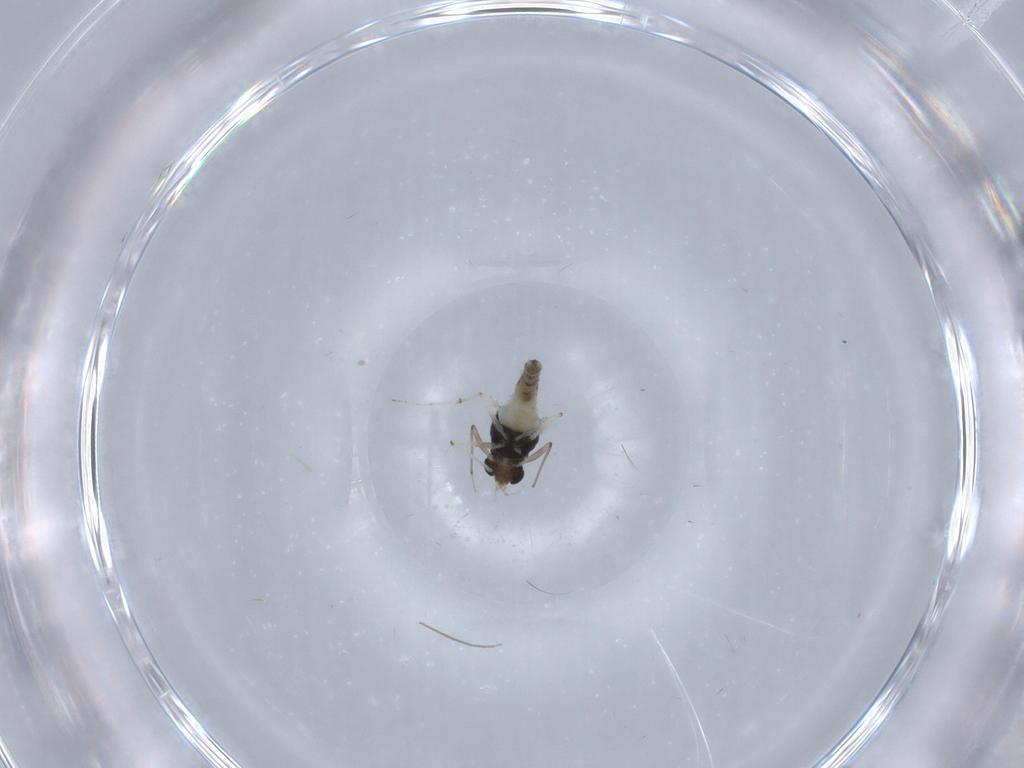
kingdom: Animalia
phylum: Arthropoda
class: Insecta
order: Diptera
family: Chironomidae
